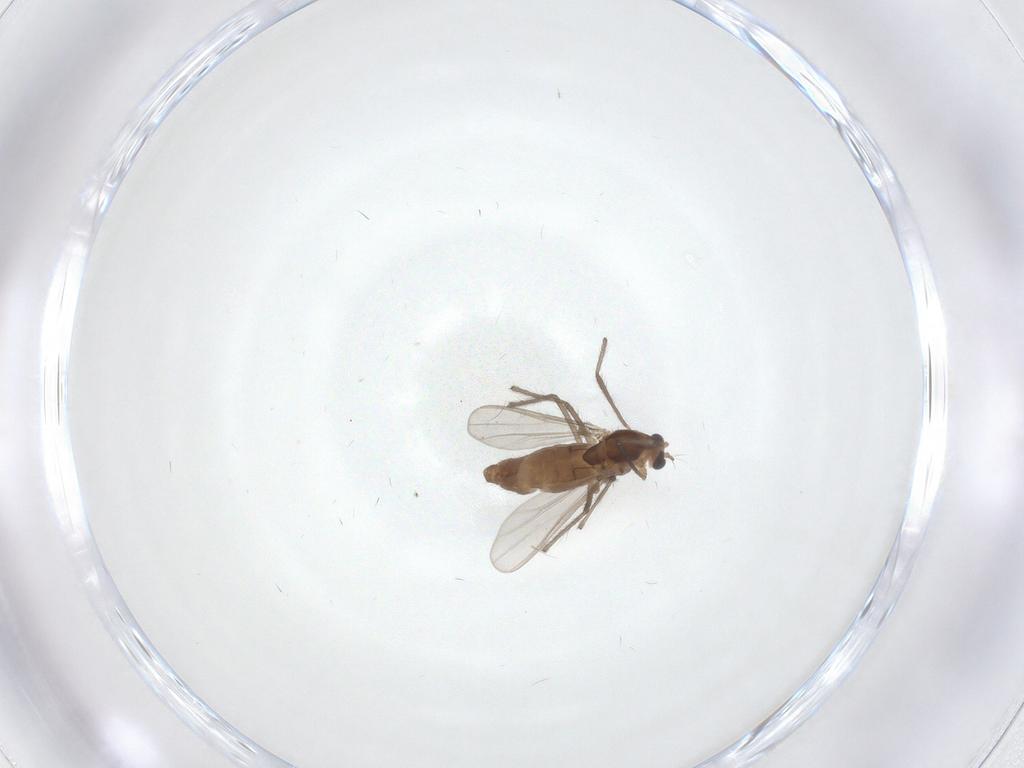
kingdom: Animalia
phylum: Arthropoda
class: Insecta
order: Diptera
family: Chironomidae
